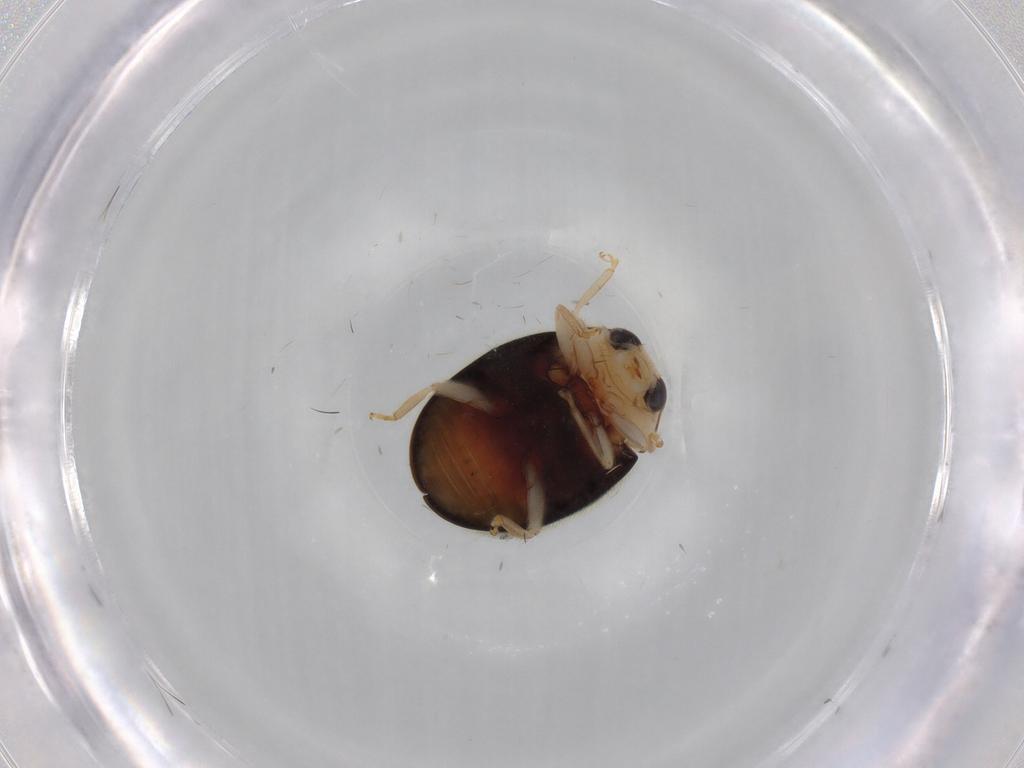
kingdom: Animalia
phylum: Arthropoda
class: Insecta
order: Coleoptera
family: Coccinellidae
